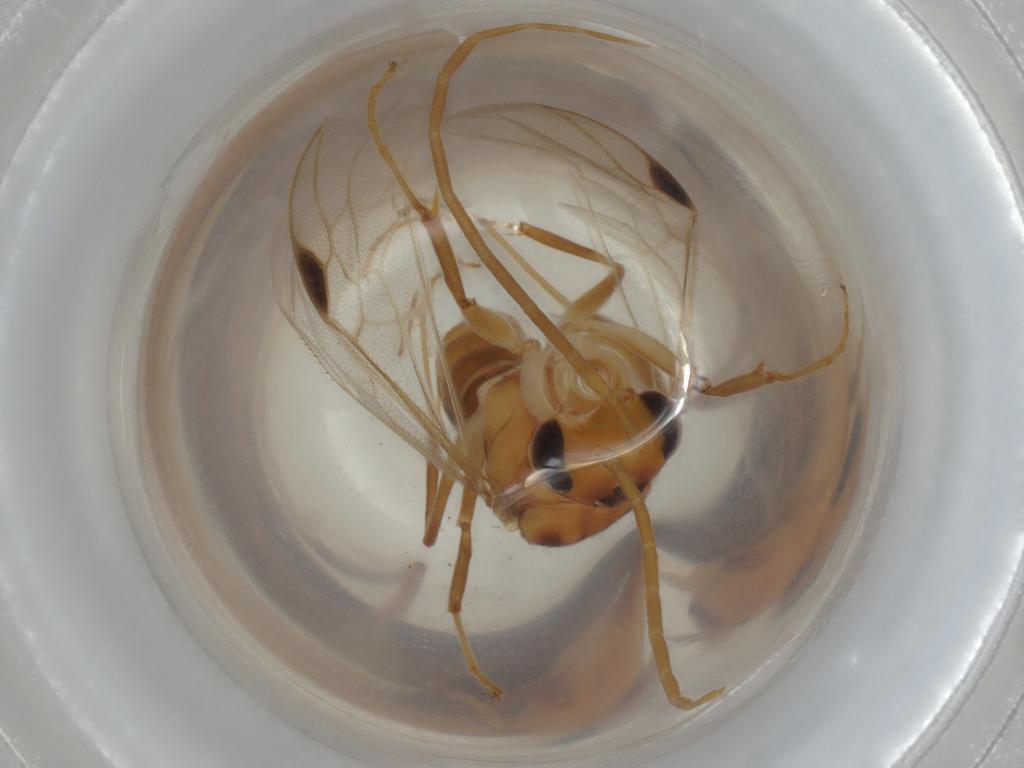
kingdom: Animalia
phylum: Arthropoda
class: Insecta
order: Hymenoptera
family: Formicidae
